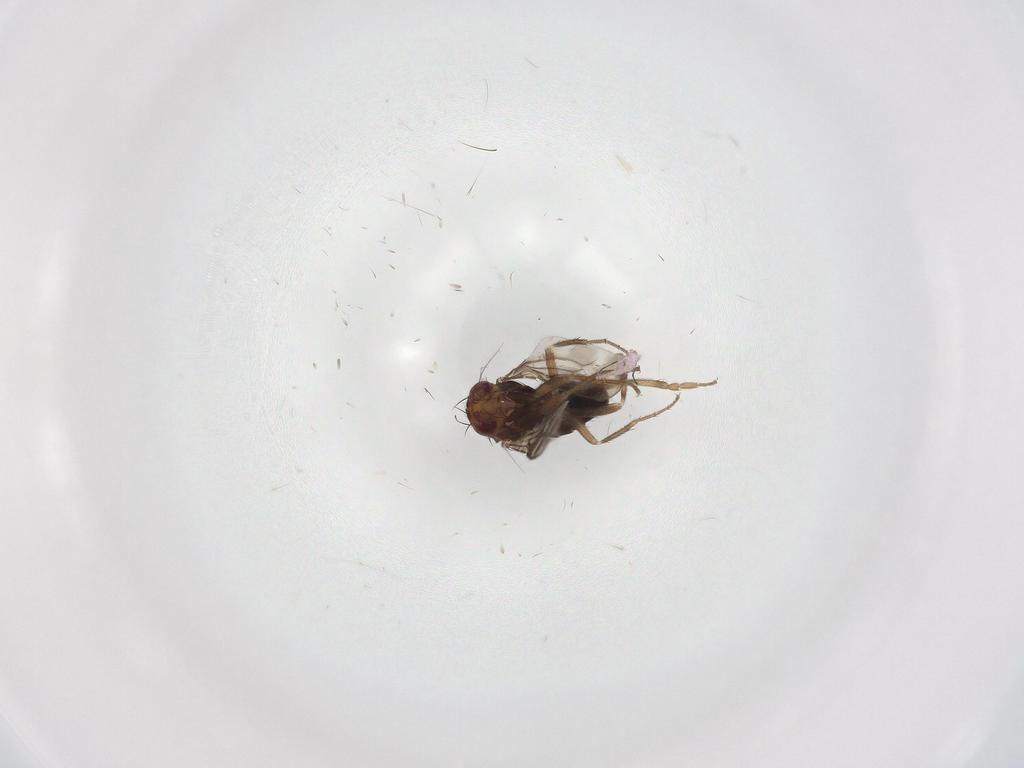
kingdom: Animalia
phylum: Arthropoda
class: Insecta
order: Diptera
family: Sphaeroceridae
